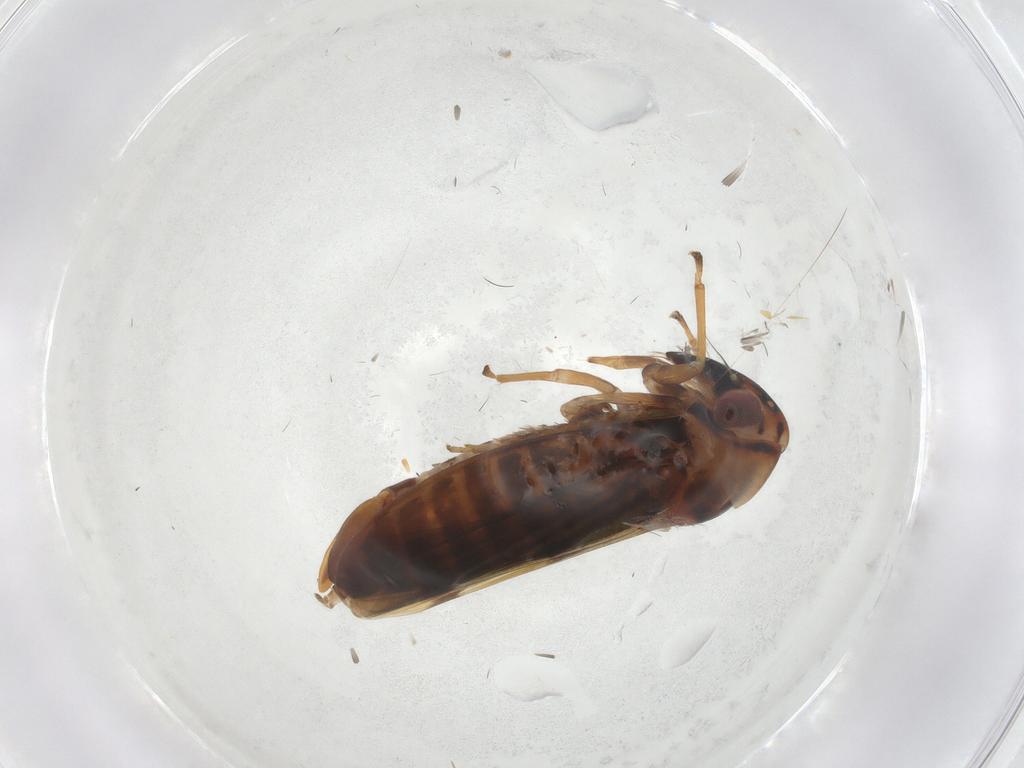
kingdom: Animalia
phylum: Arthropoda
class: Insecta
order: Hemiptera
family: Cicadellidae
